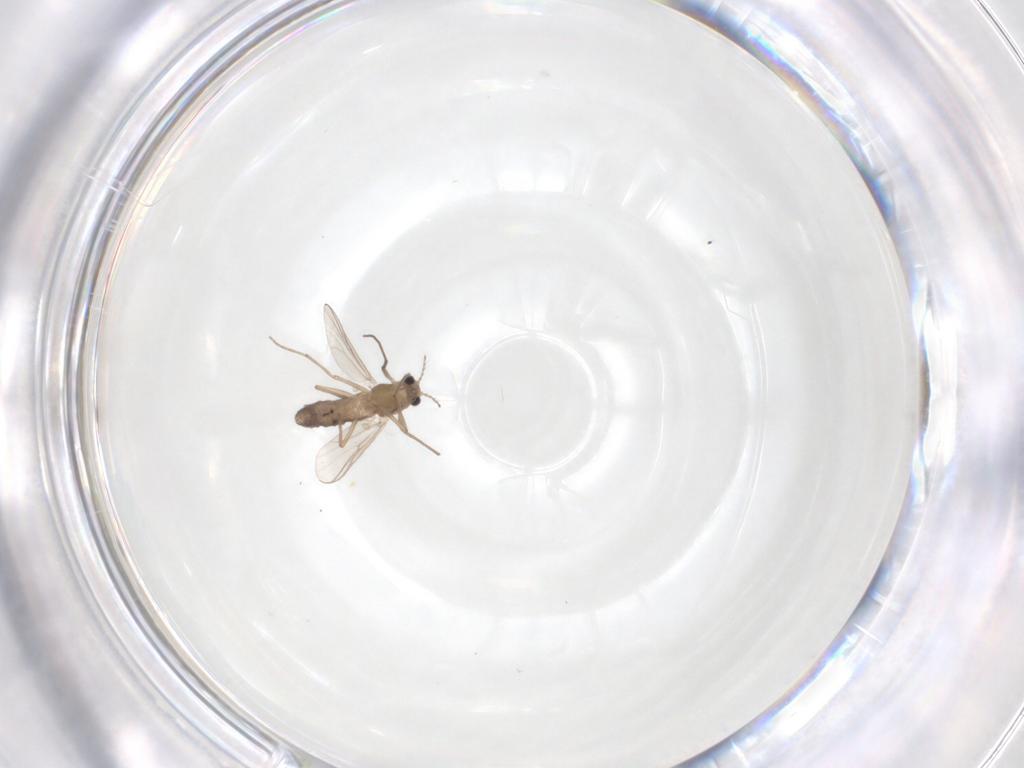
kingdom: Animalia
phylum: Arthropoda
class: Insecta
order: Diptera
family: Chironomidae
